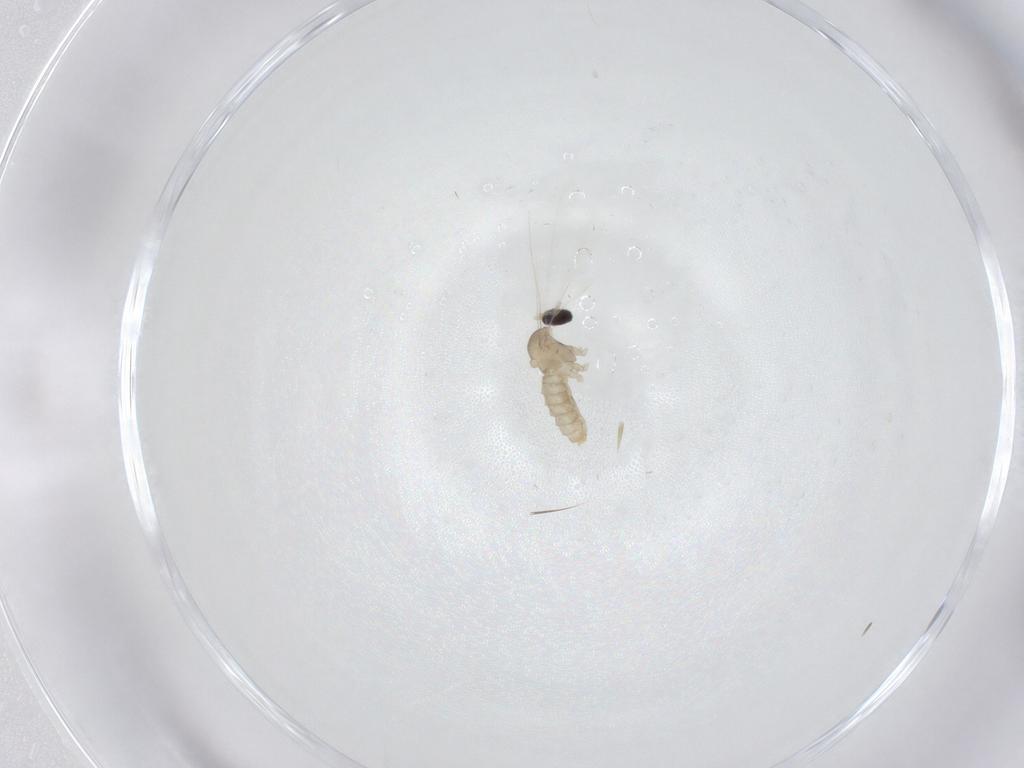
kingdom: Animalia
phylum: Arthropoda
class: Insecta
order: Diptera
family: Cecidomyiidae
